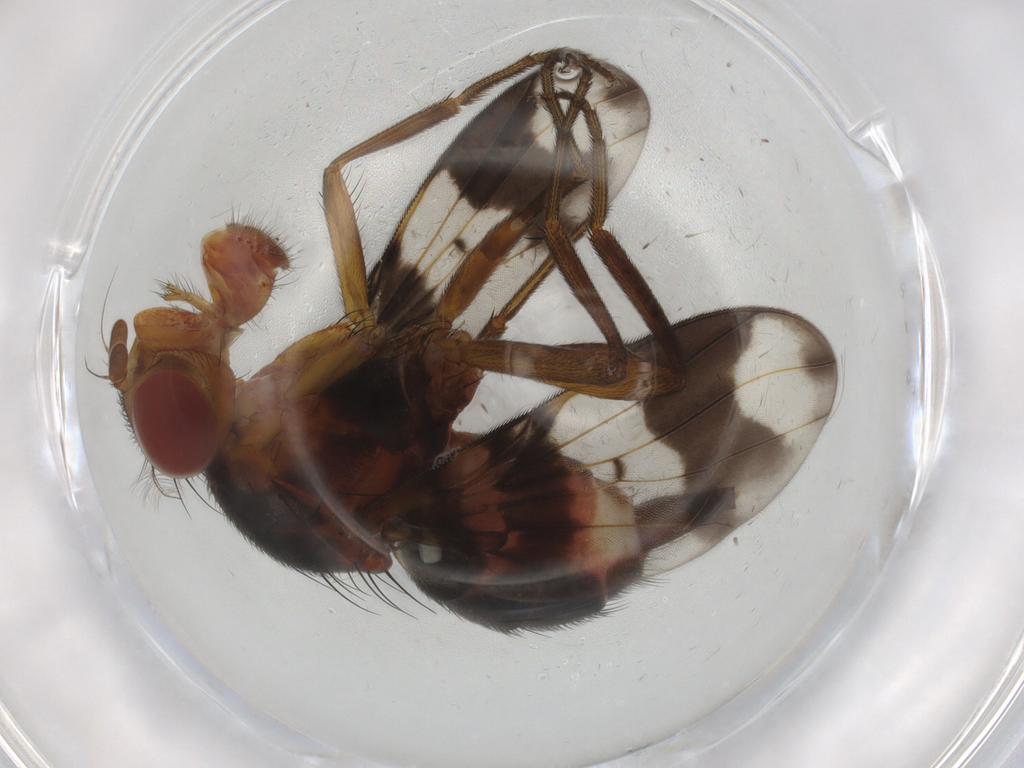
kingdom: Animalia
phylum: Arthropoda
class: Insecta
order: Diptera
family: Richardiidae
